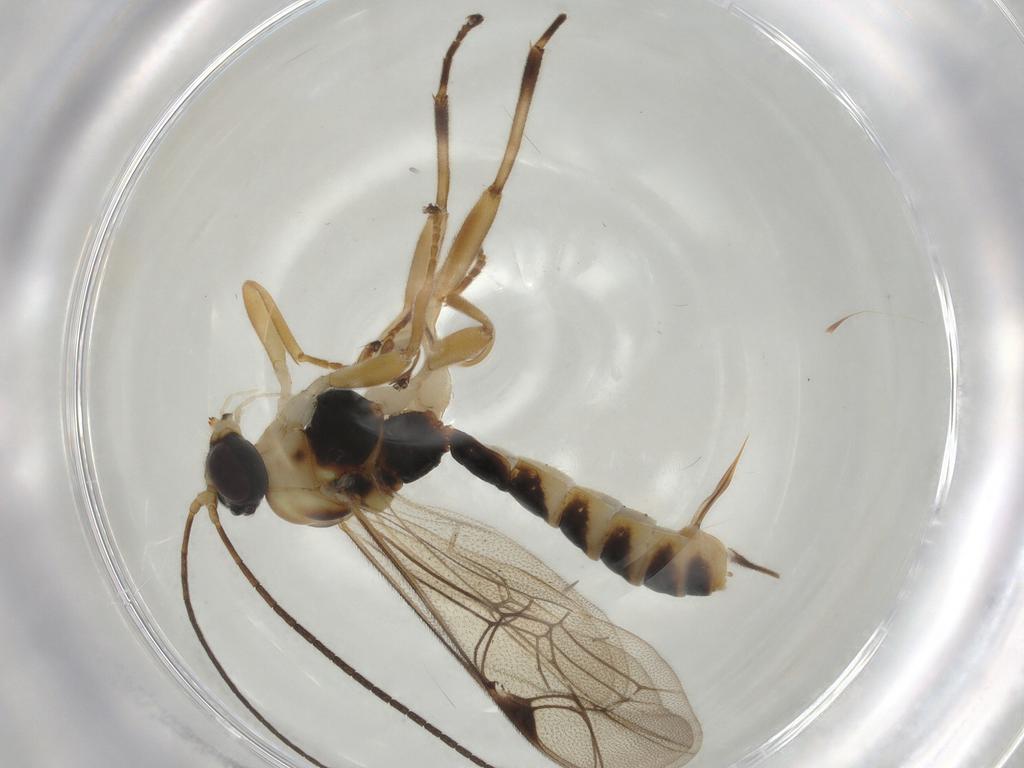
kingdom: Animalia
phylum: Arthropoda
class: Insecta
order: Hymenoptera
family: Ichneumonidae
